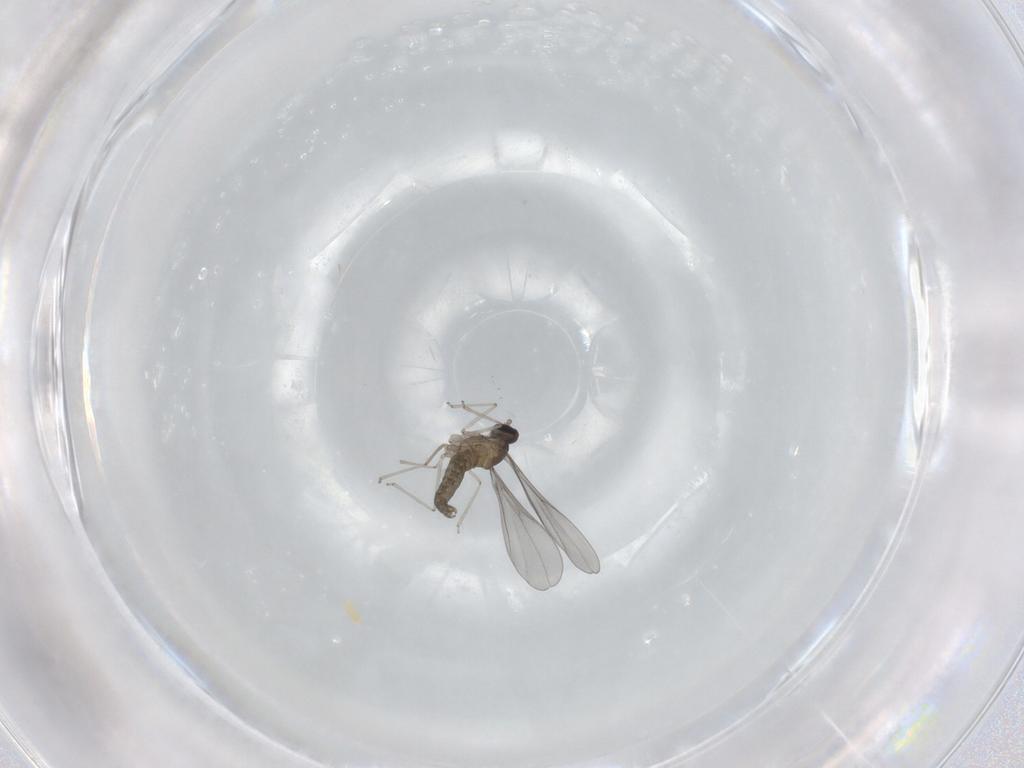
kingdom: Animalia
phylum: Arthropoda
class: Insecta
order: Diptera
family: Cecidomyiidae
